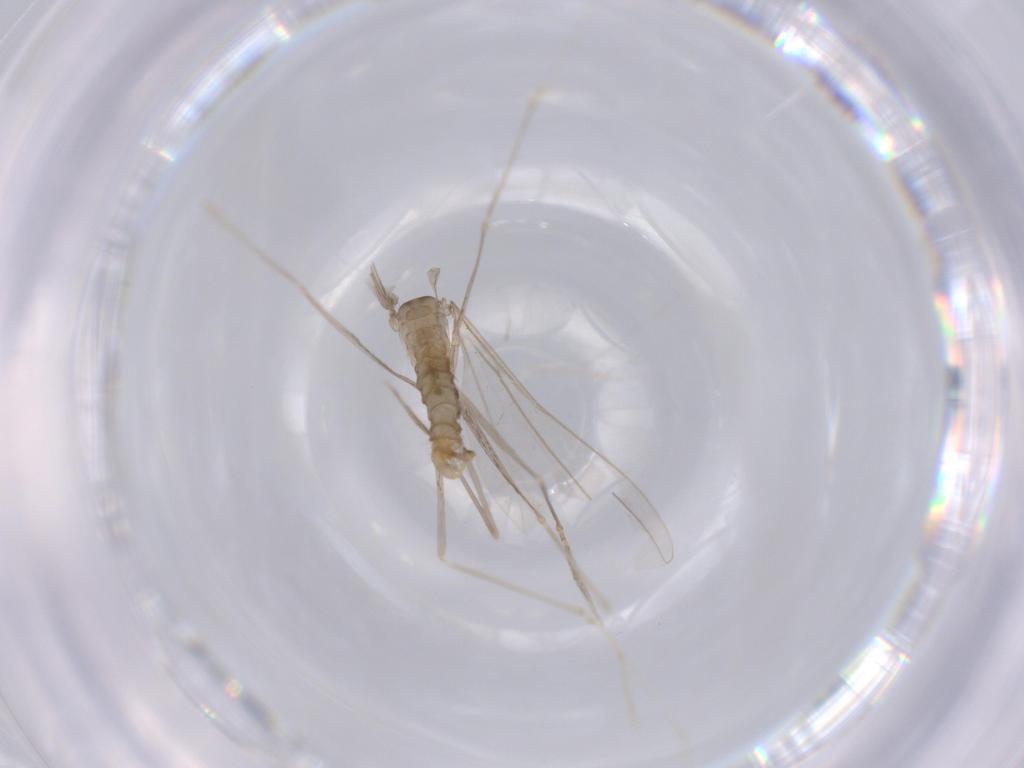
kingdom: Animalia
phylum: Arthropoda
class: Insecta
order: Diptera
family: Sciaridae
